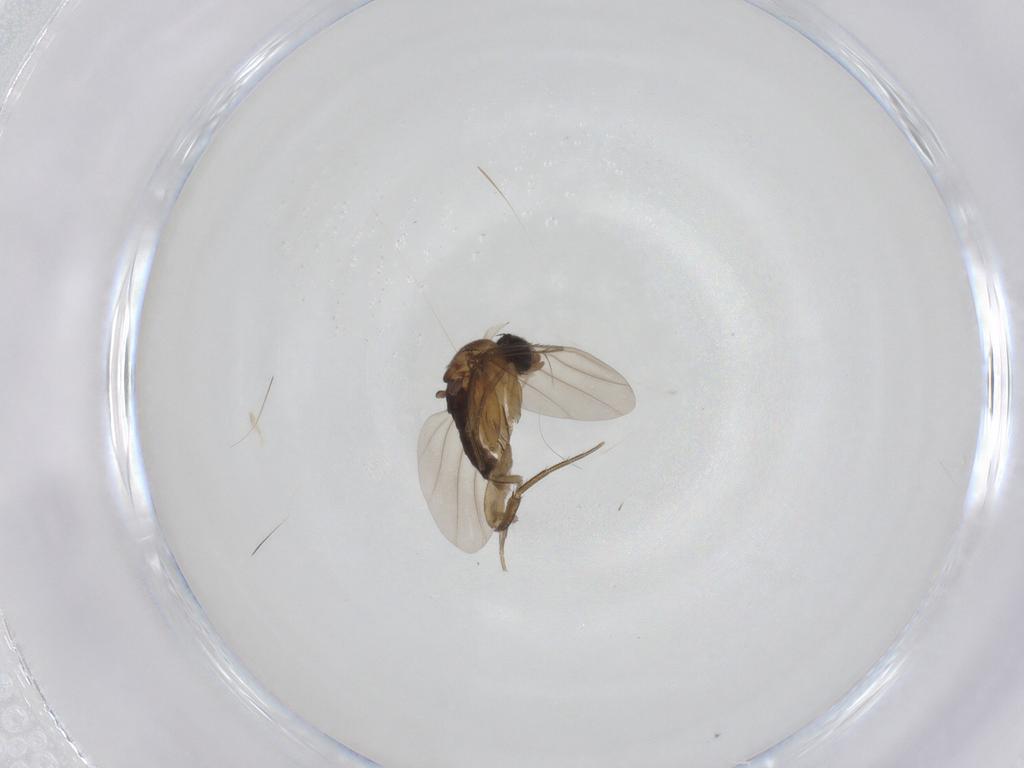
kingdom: Animalia
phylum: Arthropoda
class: Insecta
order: Diptera
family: Phoridae
